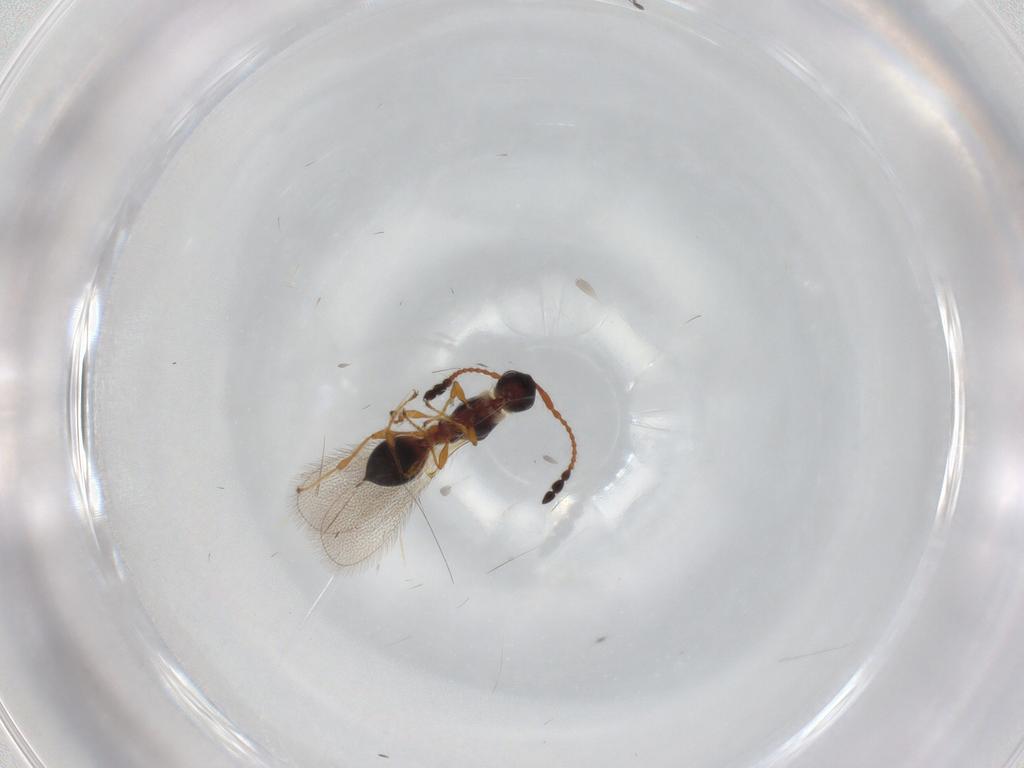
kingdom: Animalia
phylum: Arthropoda
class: Insecta
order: Hymenoptera
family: Diapriidae
